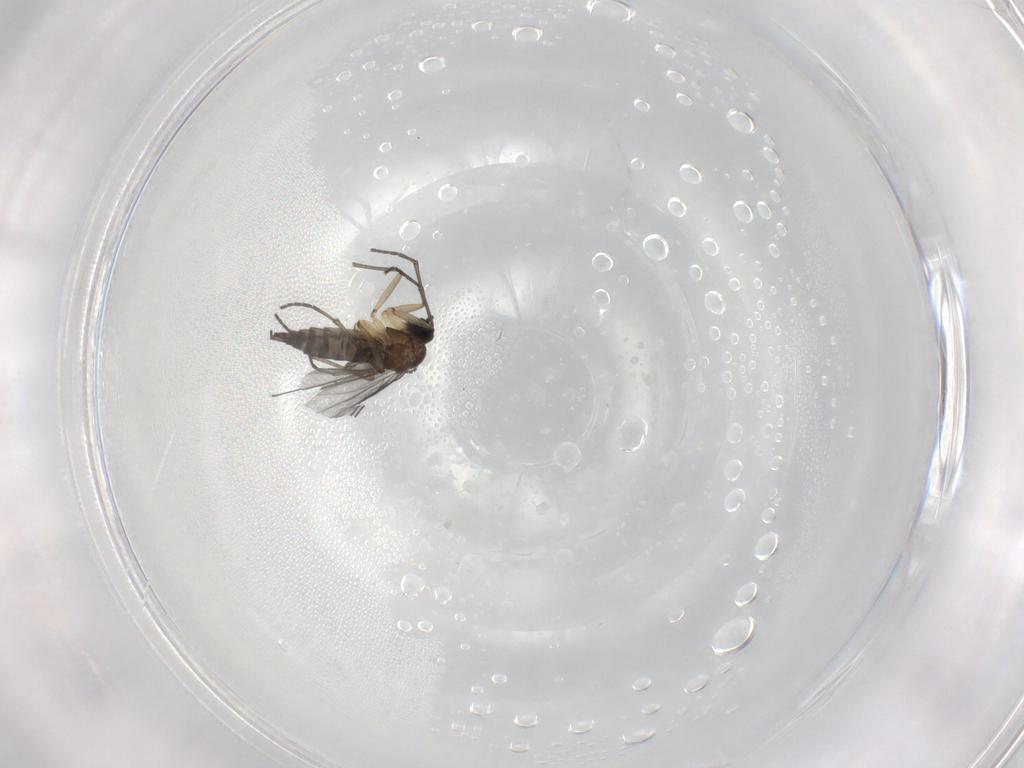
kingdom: Animalia
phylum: Arthropoda
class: Insecta
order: Diptera
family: Sciaridae
